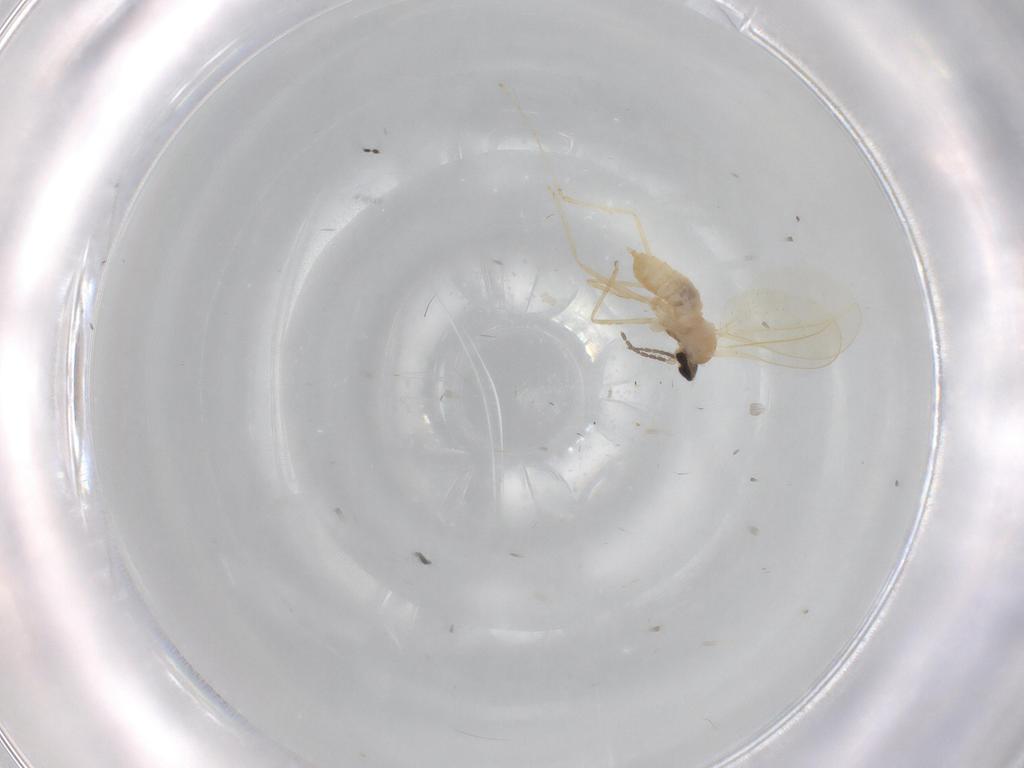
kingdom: Animalia
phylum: Arthropoda
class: Insecta
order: Diptera
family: Cecidomyiidae
